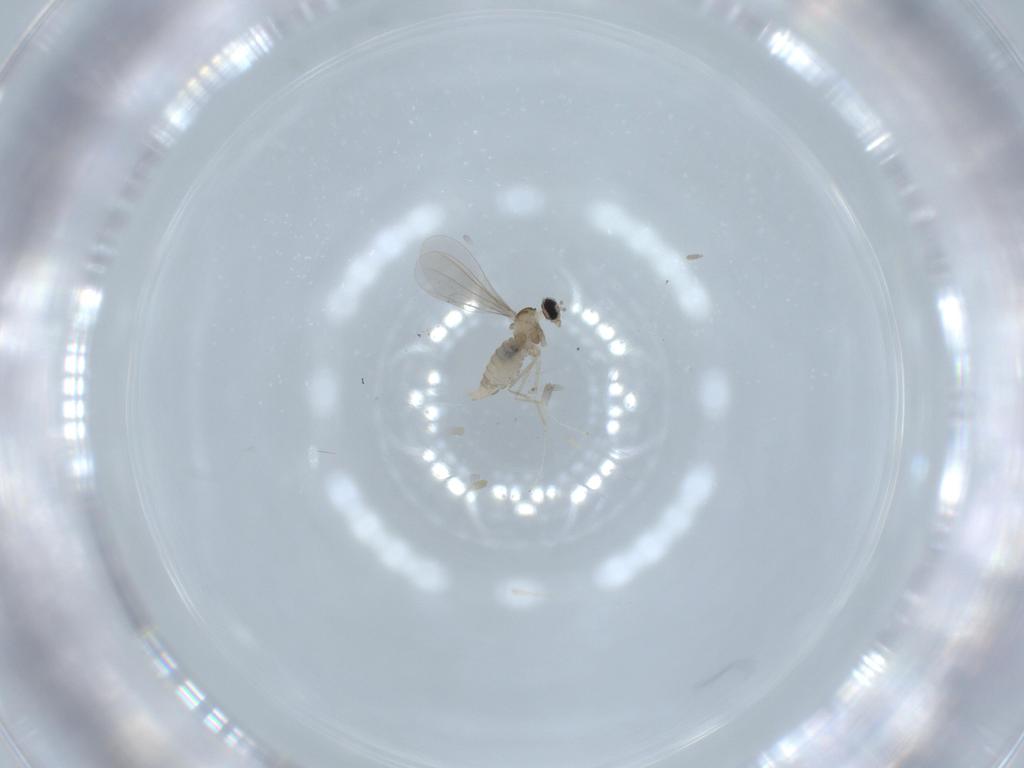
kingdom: Animalia
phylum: Arthropoda
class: Insecta
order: Diptera
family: Cecidomyiidae
